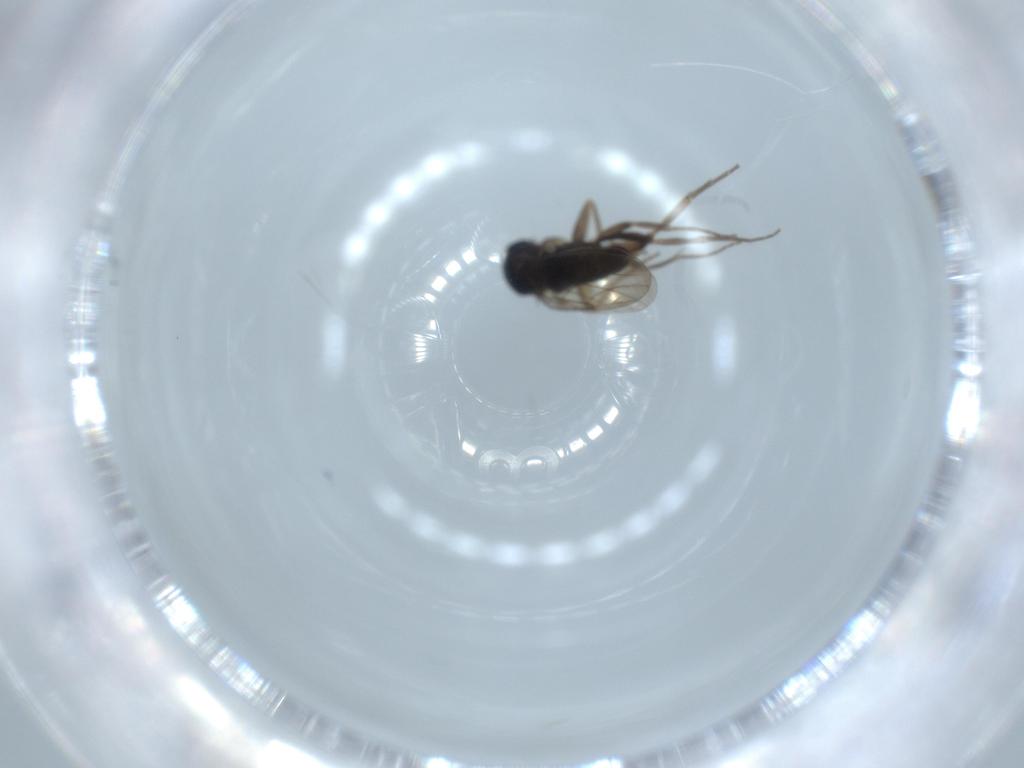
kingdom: Animalia
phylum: Arthropoda
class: Insecta
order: Diptera
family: Phoridae
